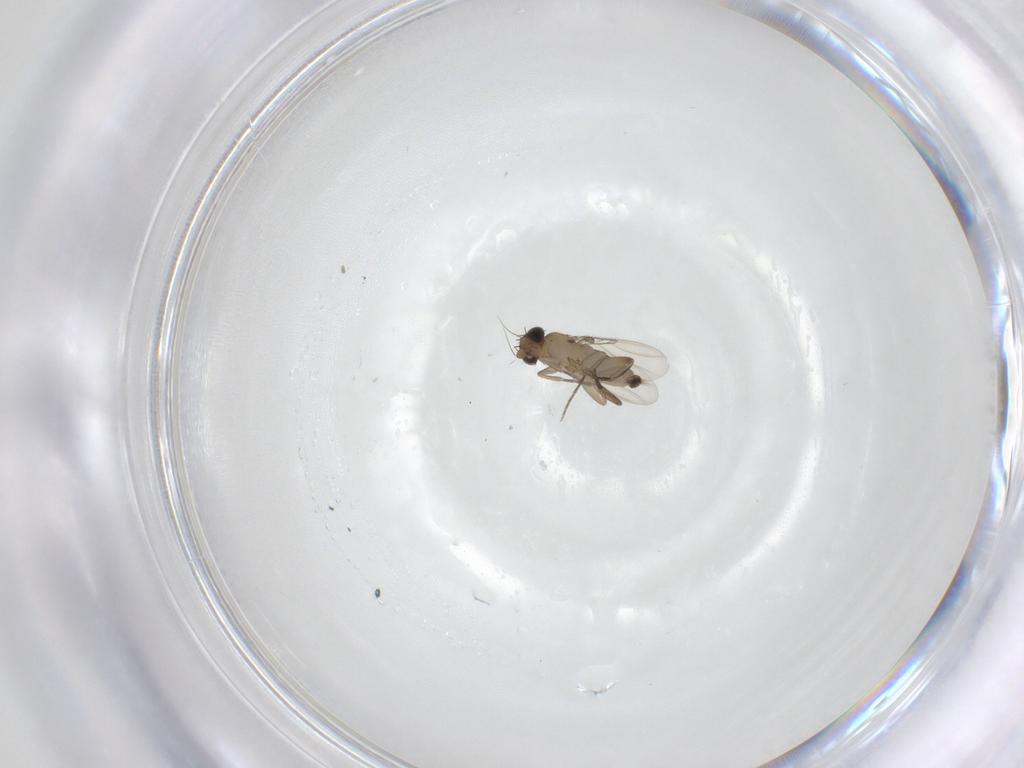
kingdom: Animalia
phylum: Arthropoda
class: Insecta
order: Diptera
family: Phoridae
